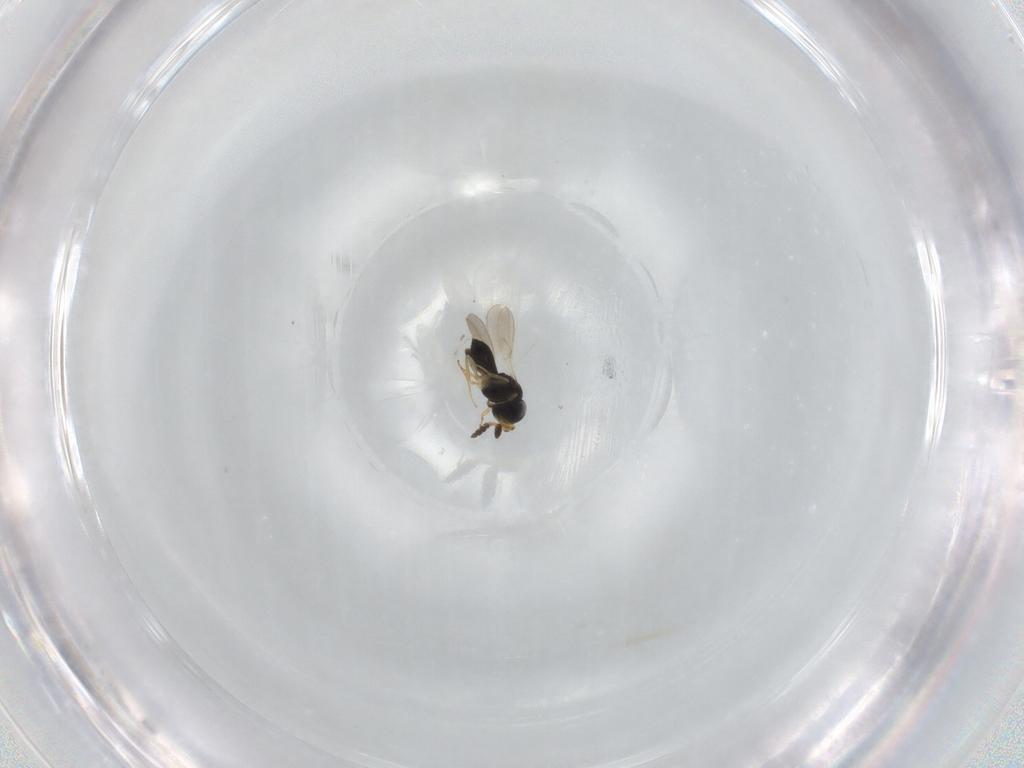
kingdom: Animalia
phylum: Arthropoda
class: Insecta
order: Hymenoptera
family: Scelionidae
